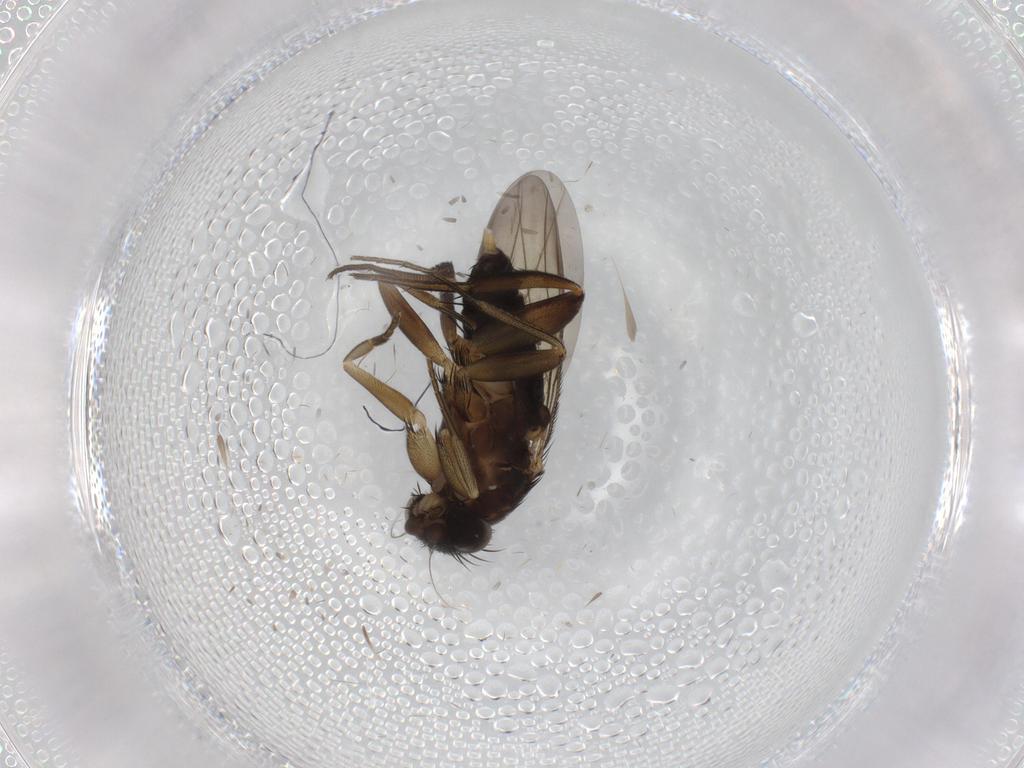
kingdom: Animalia
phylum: Arthropoda
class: Insecta
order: Diptera
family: Phoridae
